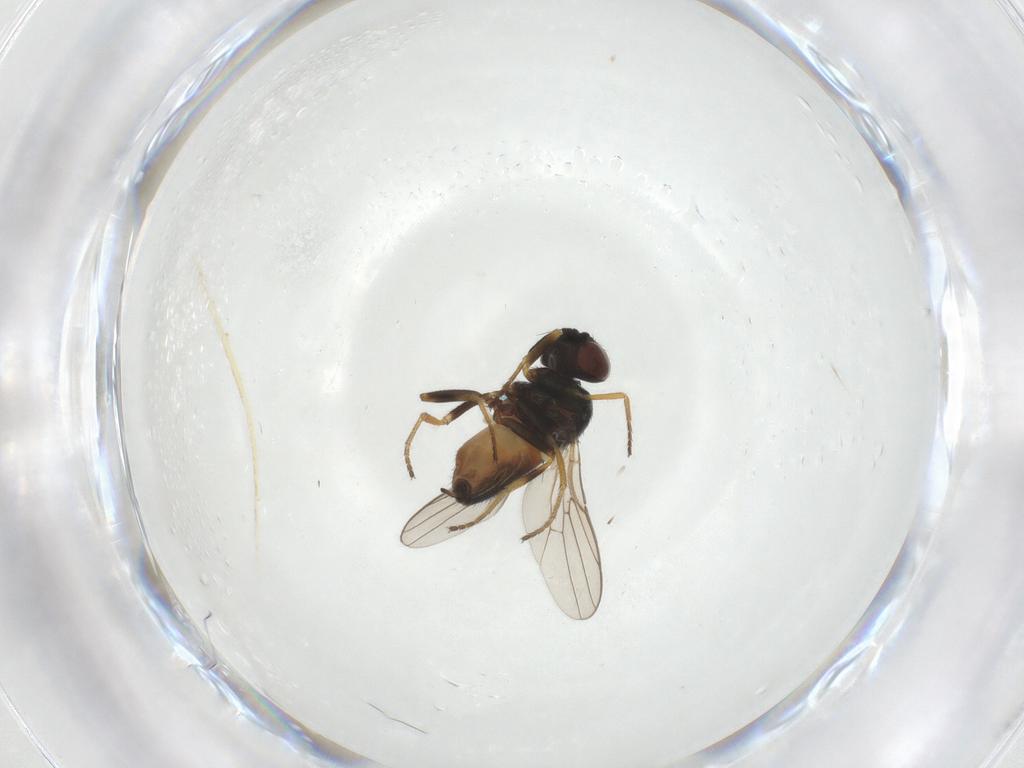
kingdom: Animalia
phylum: Arthropoda
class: Insecta
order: Diptera
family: Chloropidae
